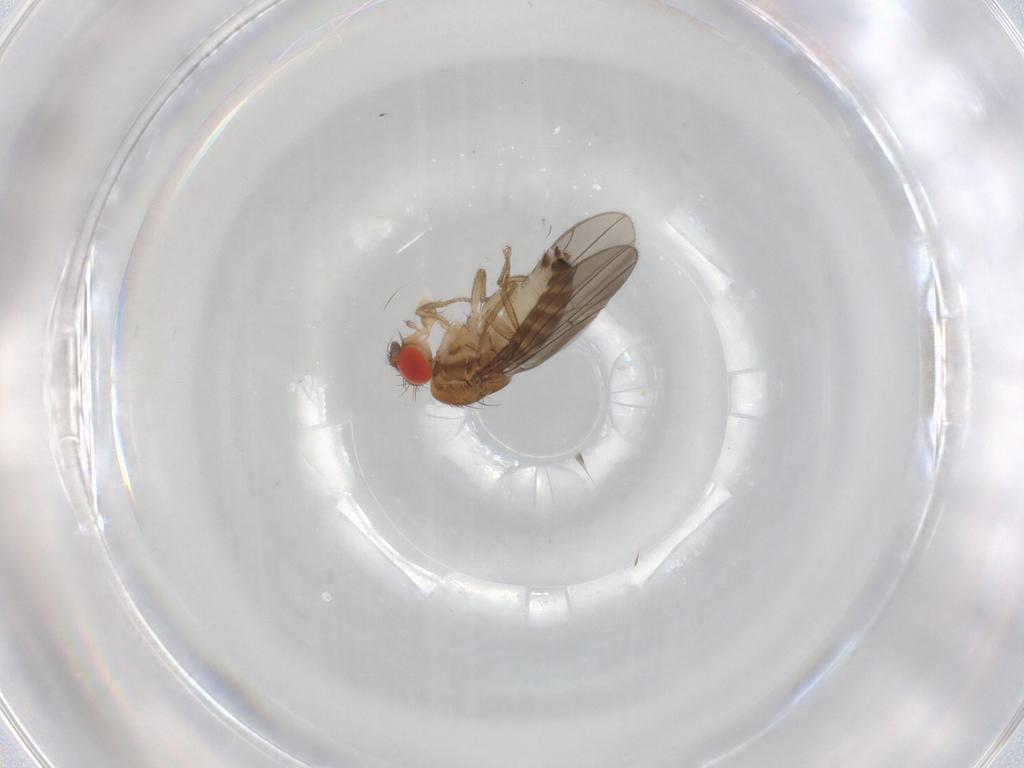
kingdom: Animalia
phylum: Arthropoda
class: Insecta
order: Diptera
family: Drosophilidae
